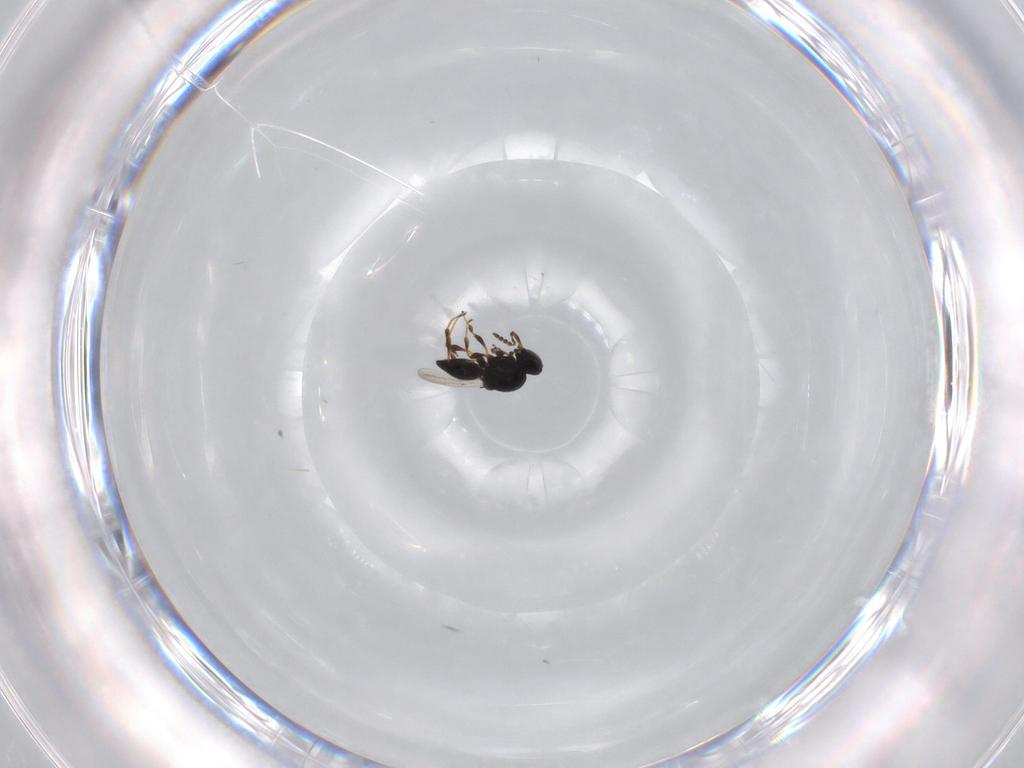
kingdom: Animalia
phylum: Arthropoda
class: Insecta
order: Hymenoptera
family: Platygastridae
